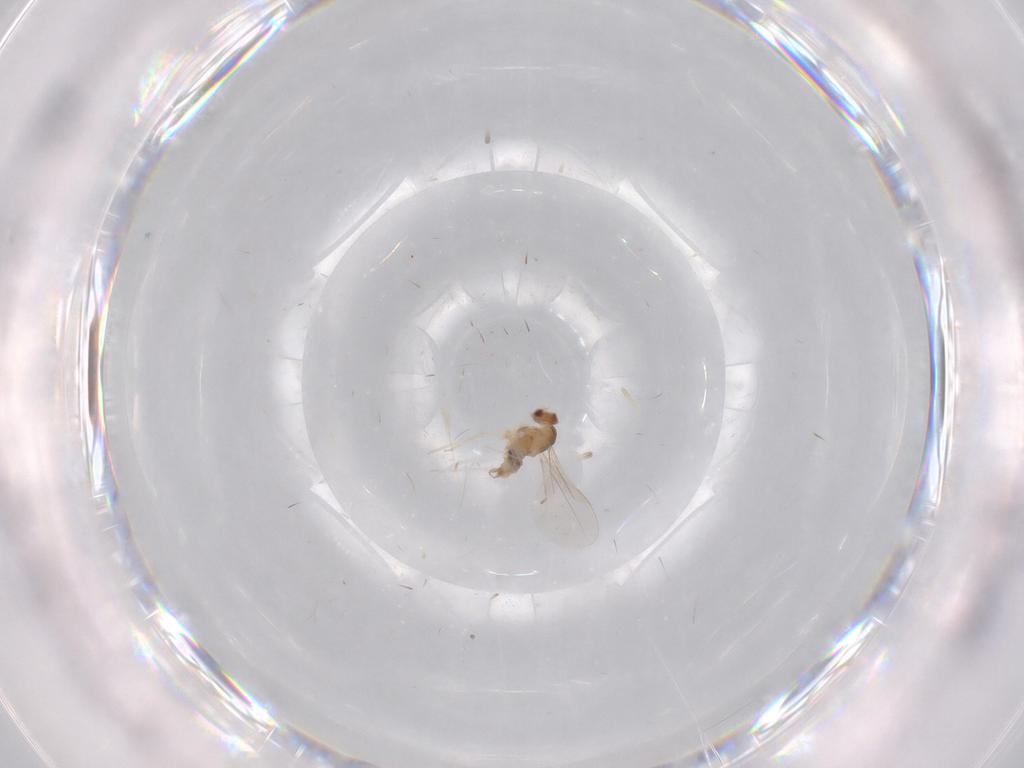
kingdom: Animalia
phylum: Arthropoda
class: Insecta
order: Diptera
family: Cecidomyiidae
